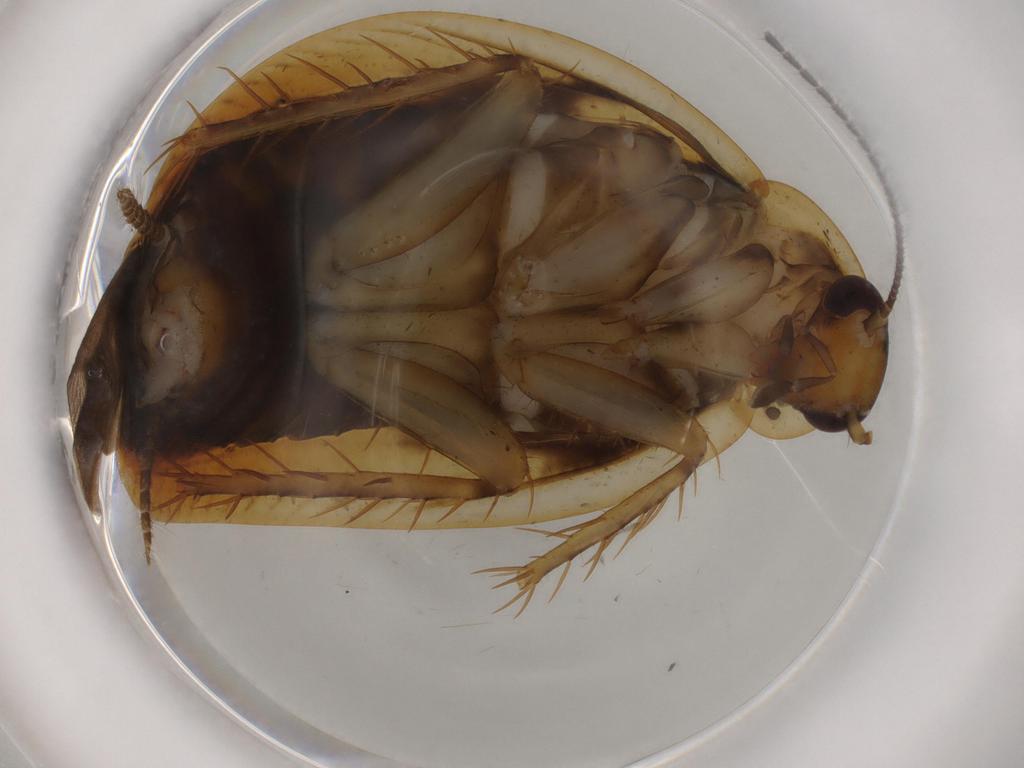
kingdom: Animalia
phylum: Arthropoda
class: Insecta
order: Blattodea
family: Ectobiidae
